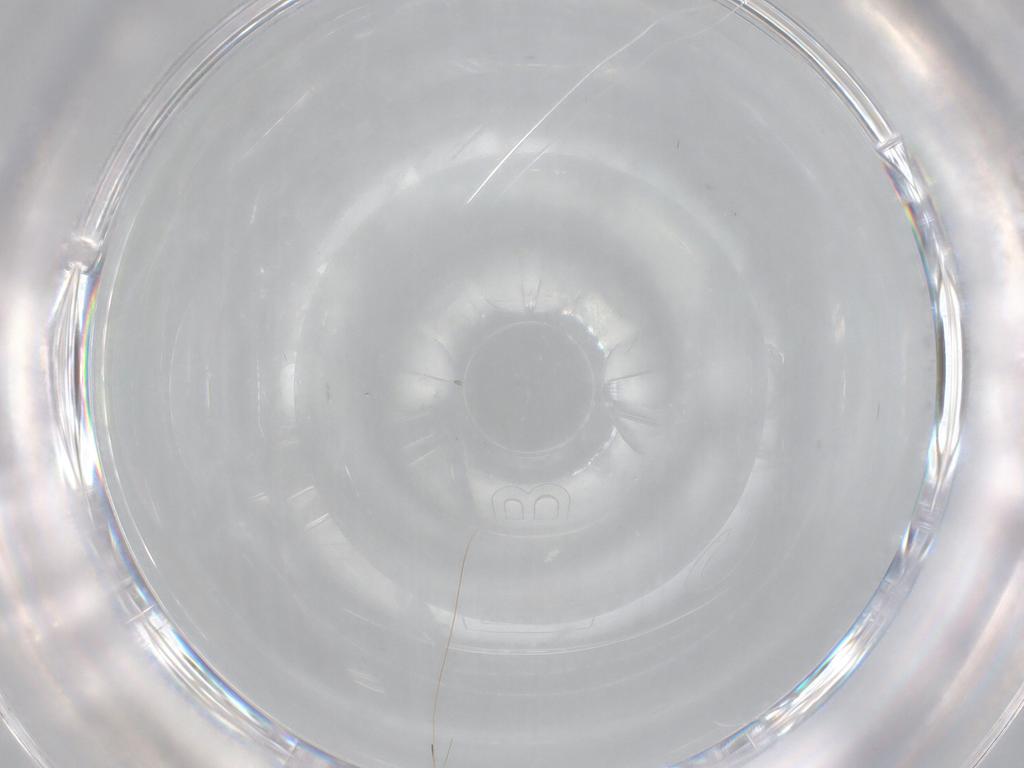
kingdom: Animalia
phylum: Arthropoda
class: Insecta
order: Diptera
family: Cecidomyiidae
